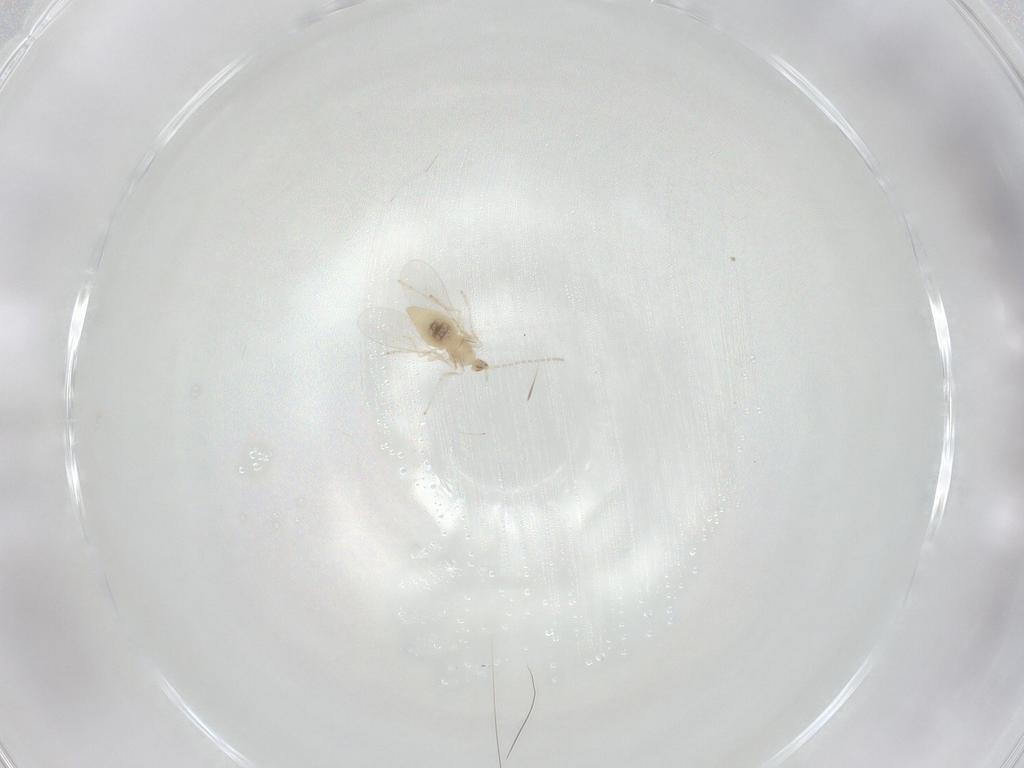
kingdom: Animalia
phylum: Arthropoda
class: Insecta
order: Diptera
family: Cecidomyiidae
